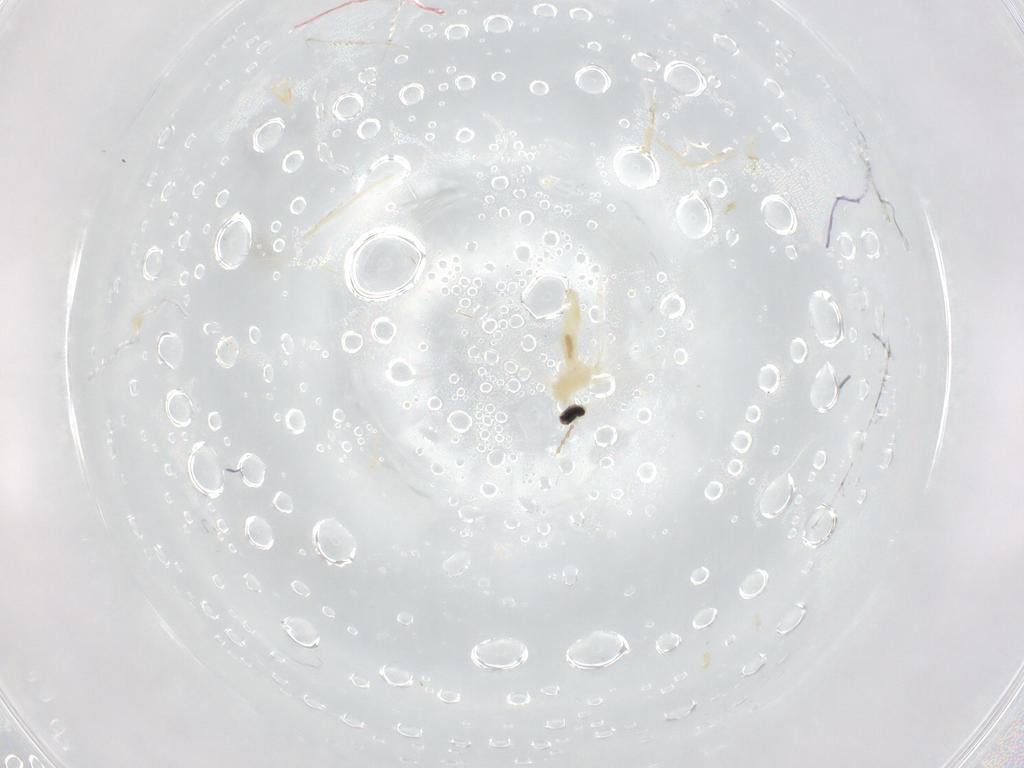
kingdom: Animalia
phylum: Arthropoda
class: Insecta
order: Diptera
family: Cecidomyiidae
